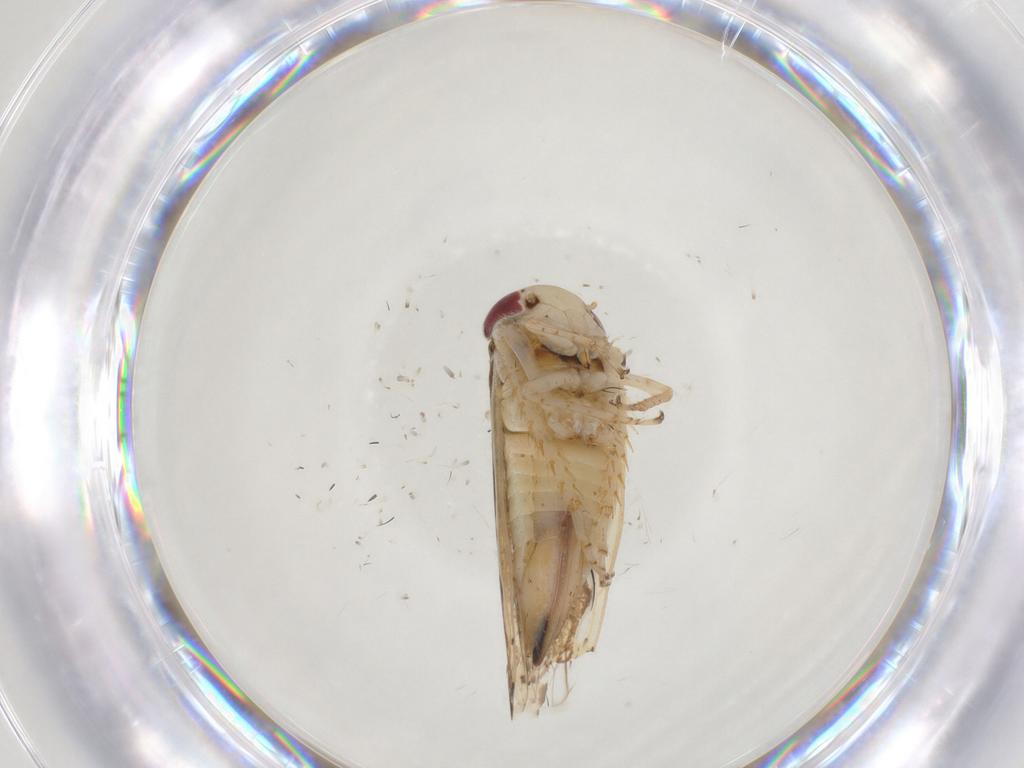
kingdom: Animalia
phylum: Arthropoda
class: Insecta
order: Hemiptera
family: Cicadellidae
